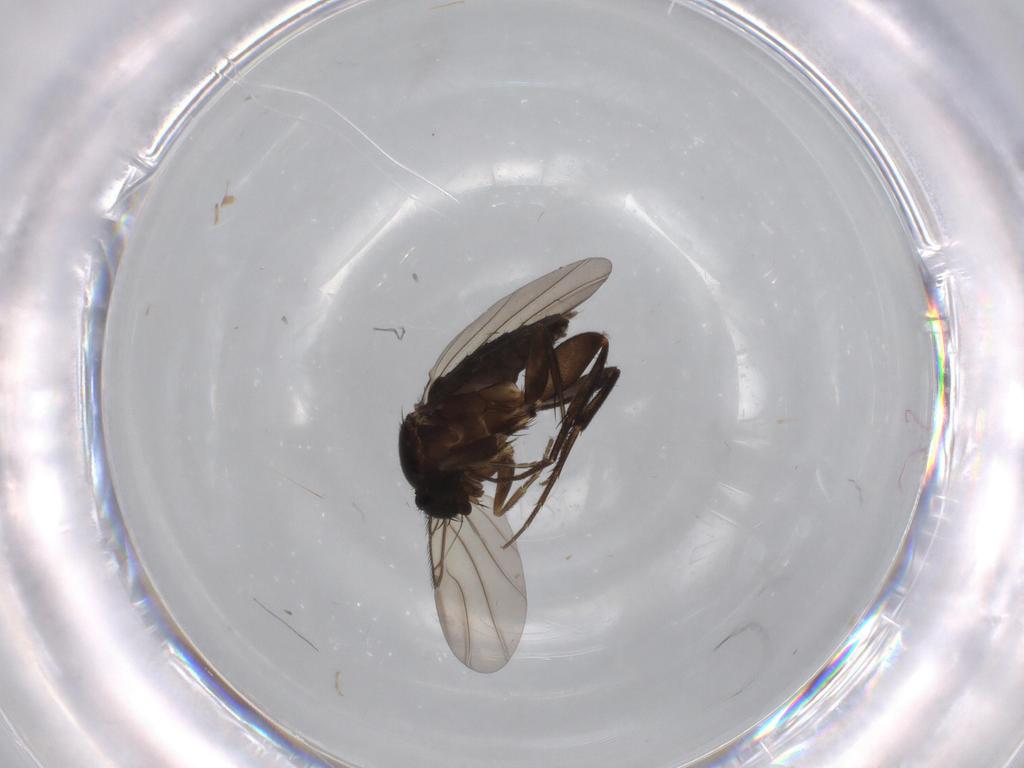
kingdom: Animalia
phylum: Arthropoda
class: Insecta
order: Diptera
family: Phoridae
